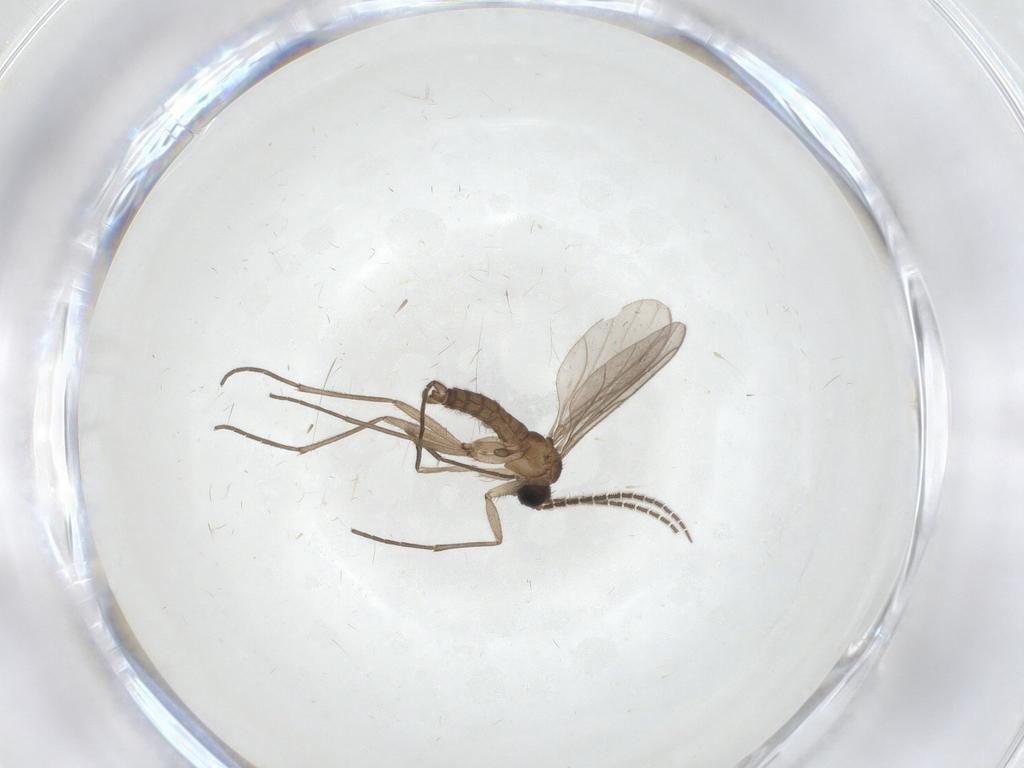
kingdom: Animalia
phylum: Arthropoda
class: Insecta
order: Diptera
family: Sciaridae
